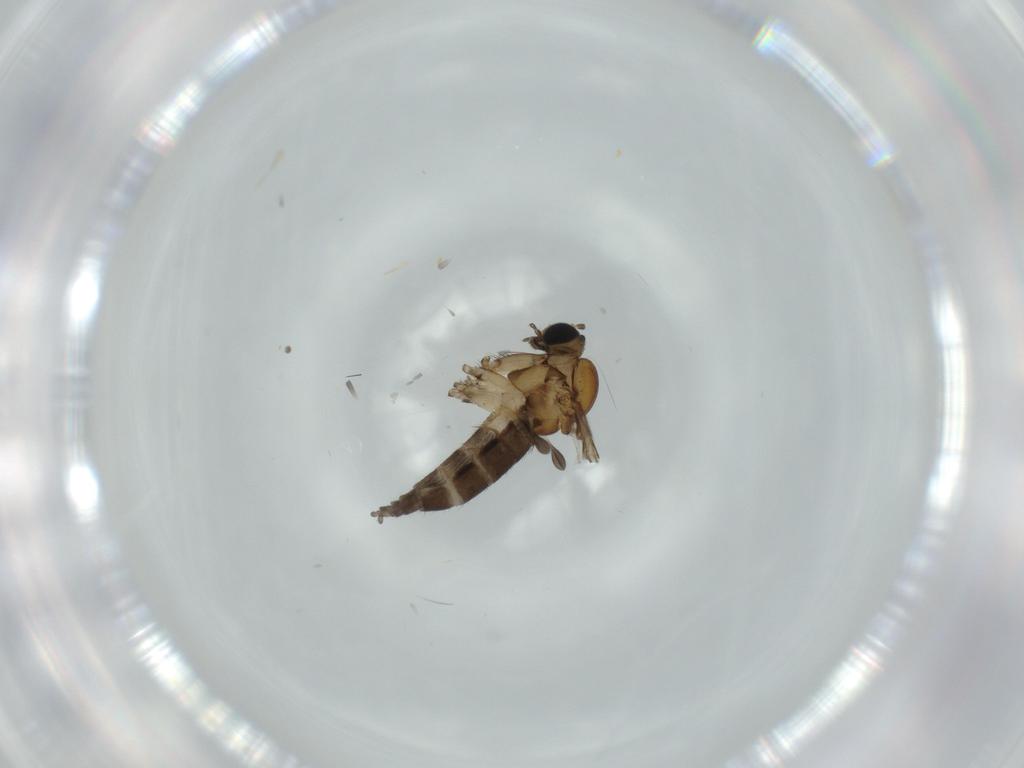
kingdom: Animalia
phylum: Arthropoda
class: Insecta
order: Diptera
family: Sciaridae
